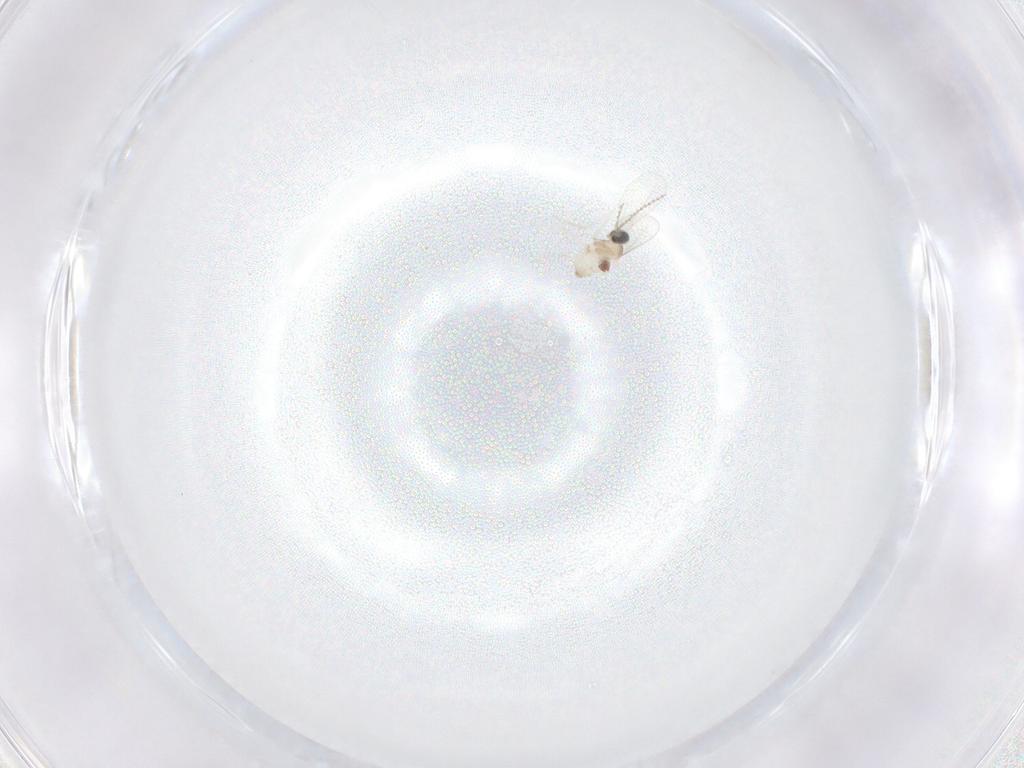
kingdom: Animalia
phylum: Arthropoda
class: Insecta
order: Diptera
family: Cecidomyiidae
